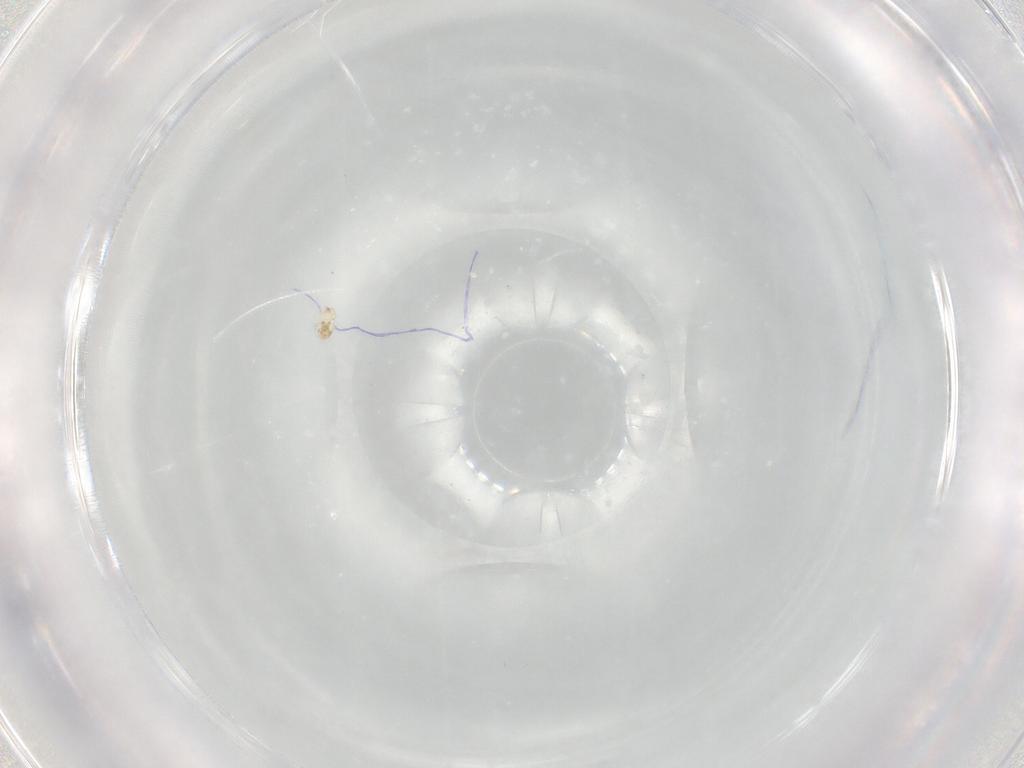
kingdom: Animalia
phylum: Arthropoda
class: Arachnida
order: Sarcoptiformes
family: Tegoribatidae
